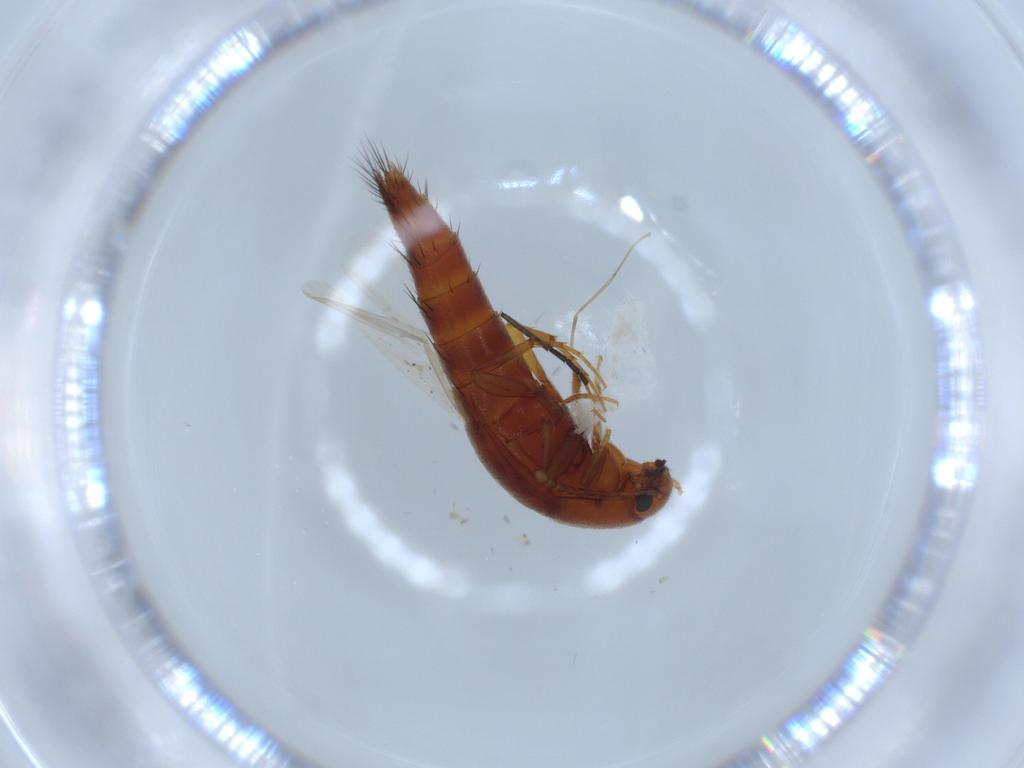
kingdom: Animalia
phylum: Arthropoda
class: Insecta
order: Coleoptera
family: Staphylinidae
